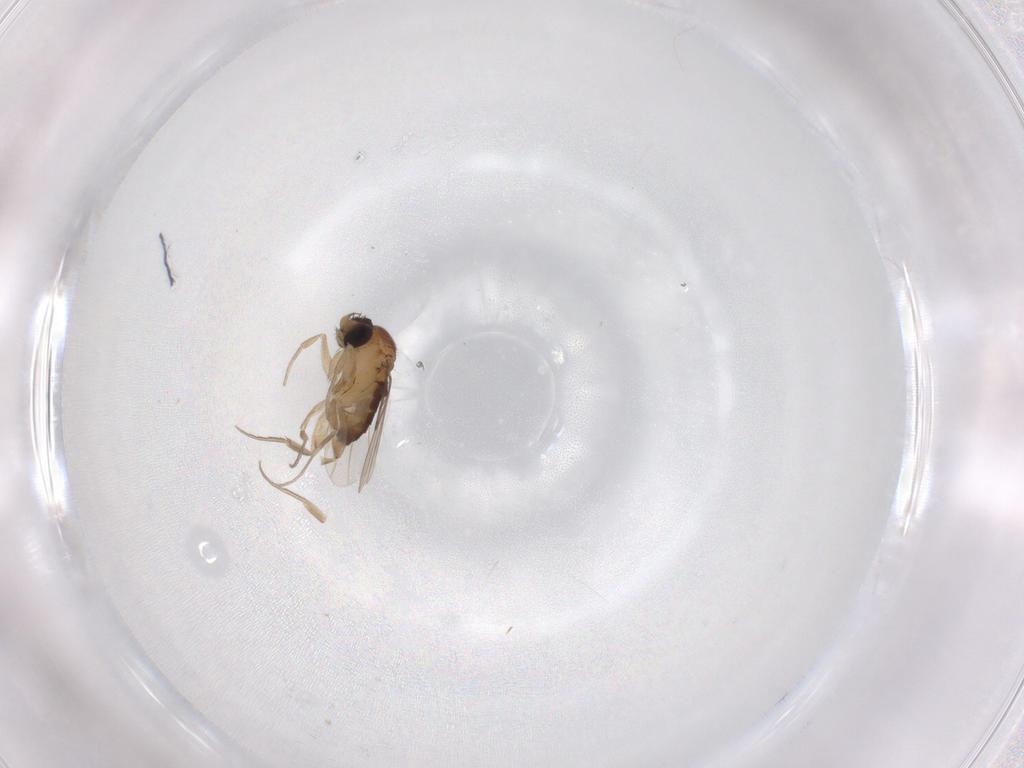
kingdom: Animalia
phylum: Arthropoda
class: Insecta
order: Diptera
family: Phoridae
